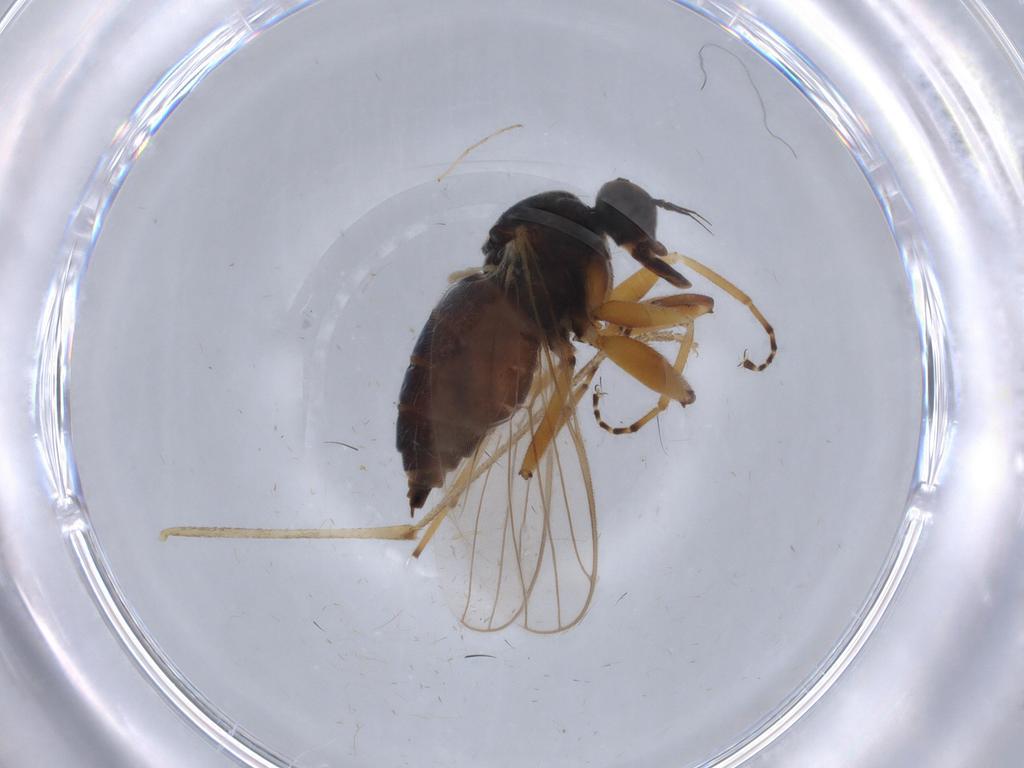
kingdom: Animalia
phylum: Arthropoda
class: Insecta
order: Diptera
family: Hybotidae
